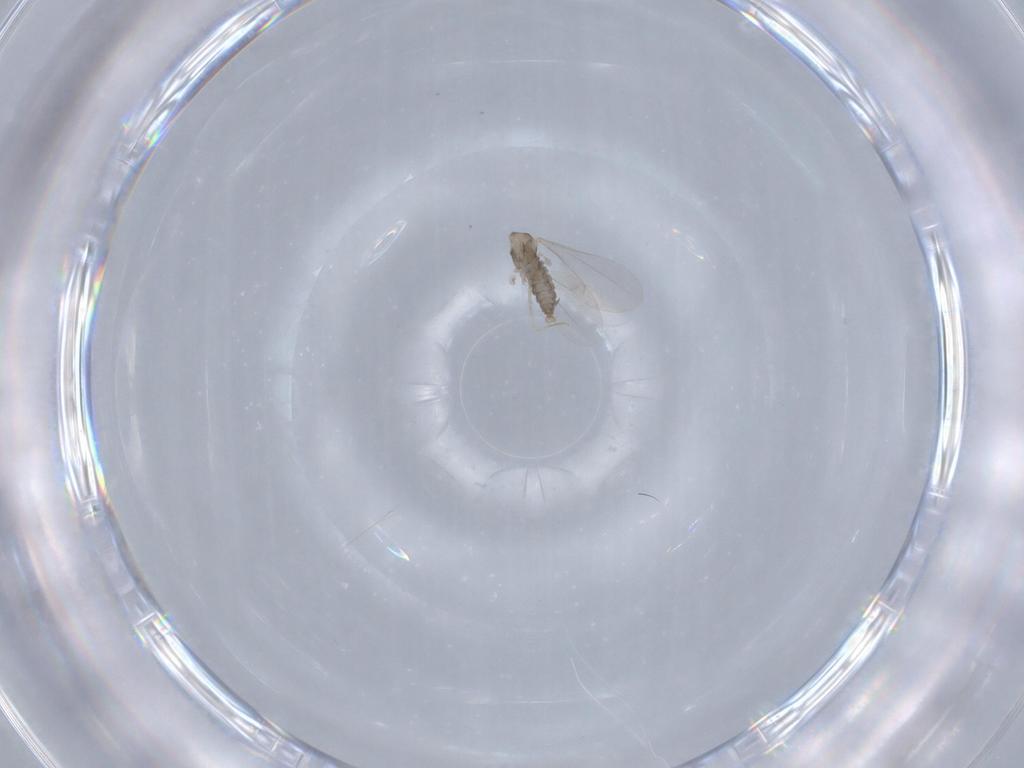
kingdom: Animalia
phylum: Arthropoda
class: Insecta
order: Diptera
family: Cecidomyiidae
